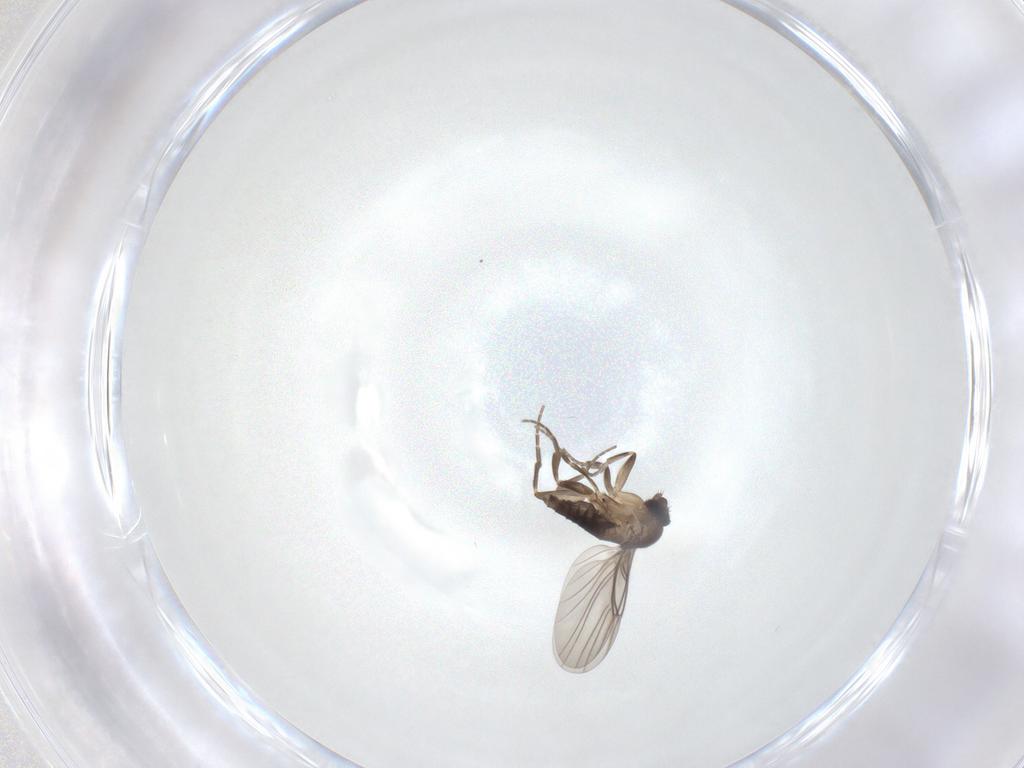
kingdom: Animalia
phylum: Arthropoda
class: Insecta
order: Diptera
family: Phoridae
